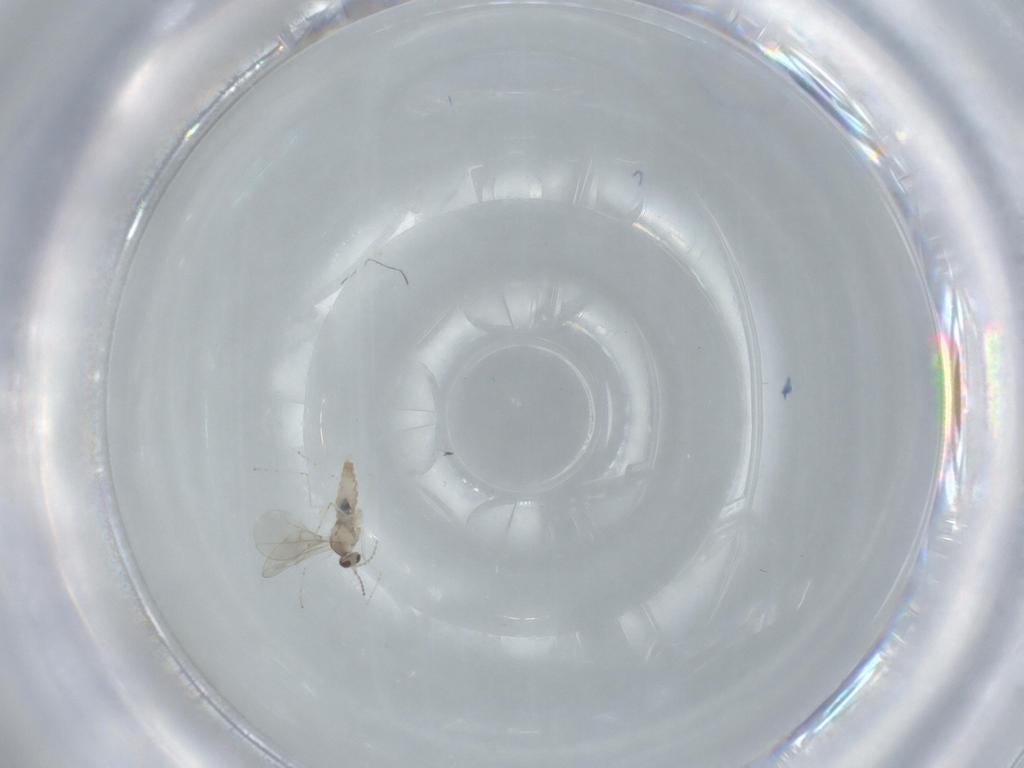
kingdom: Animalia
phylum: Arthropoda
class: Insecta
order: Diptera
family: Cecidomyiidae
